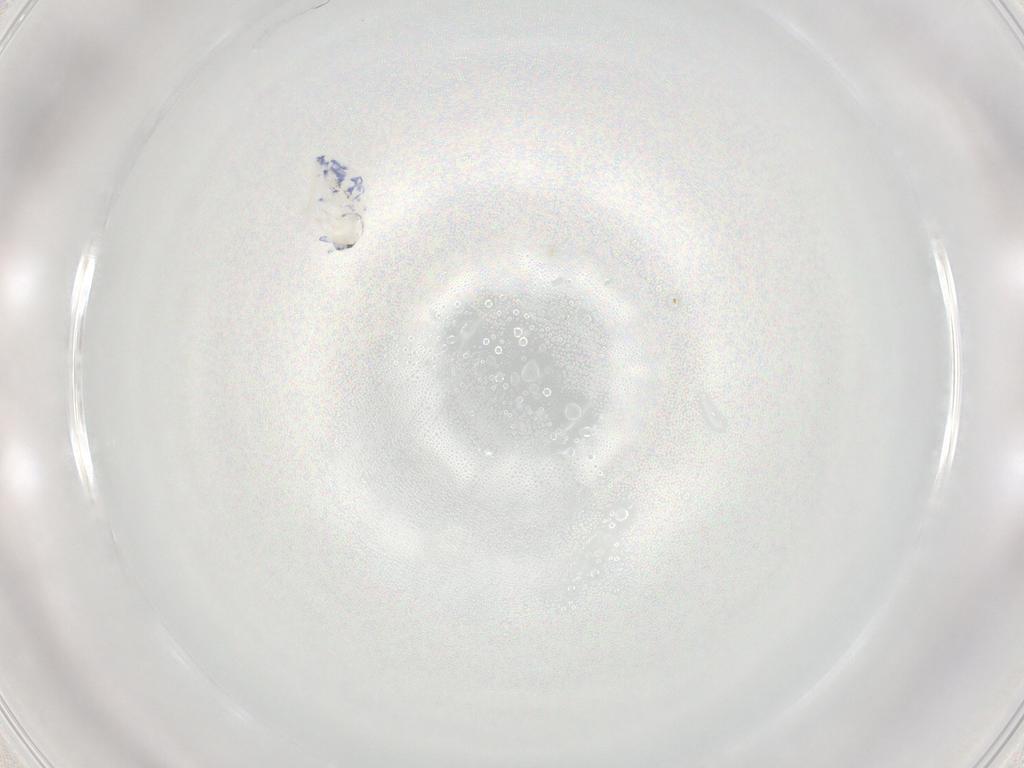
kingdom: Animalia
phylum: Arthropoda
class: Collembola
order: Entomobryomorpha
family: Entomobryidae
